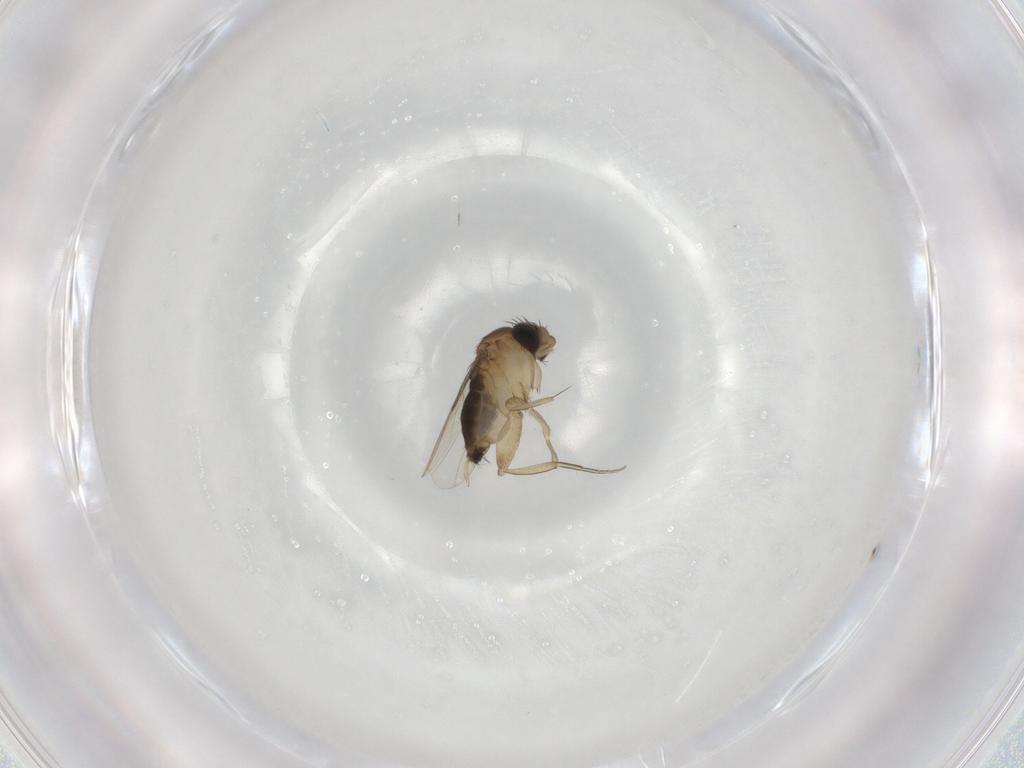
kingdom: Animalia
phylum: Arthropoda
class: Insecta
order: Diptera
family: Phoridae
